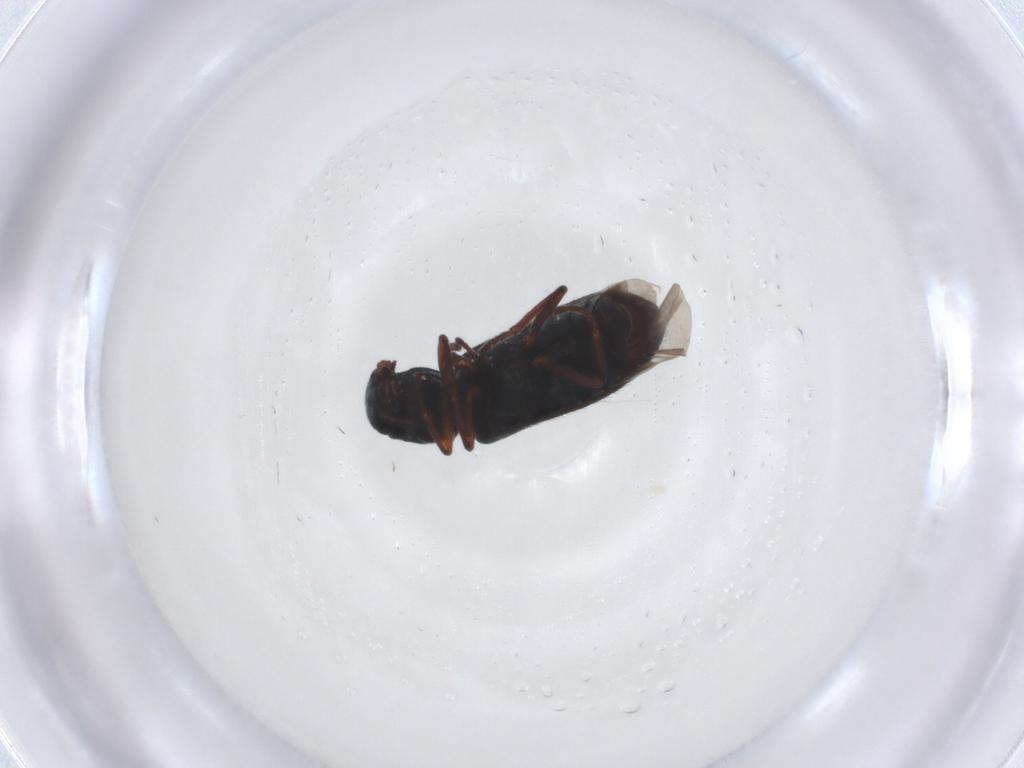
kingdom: Animalia
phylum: Arthropoda
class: Insecta
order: Coleoptera
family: Melyridae
